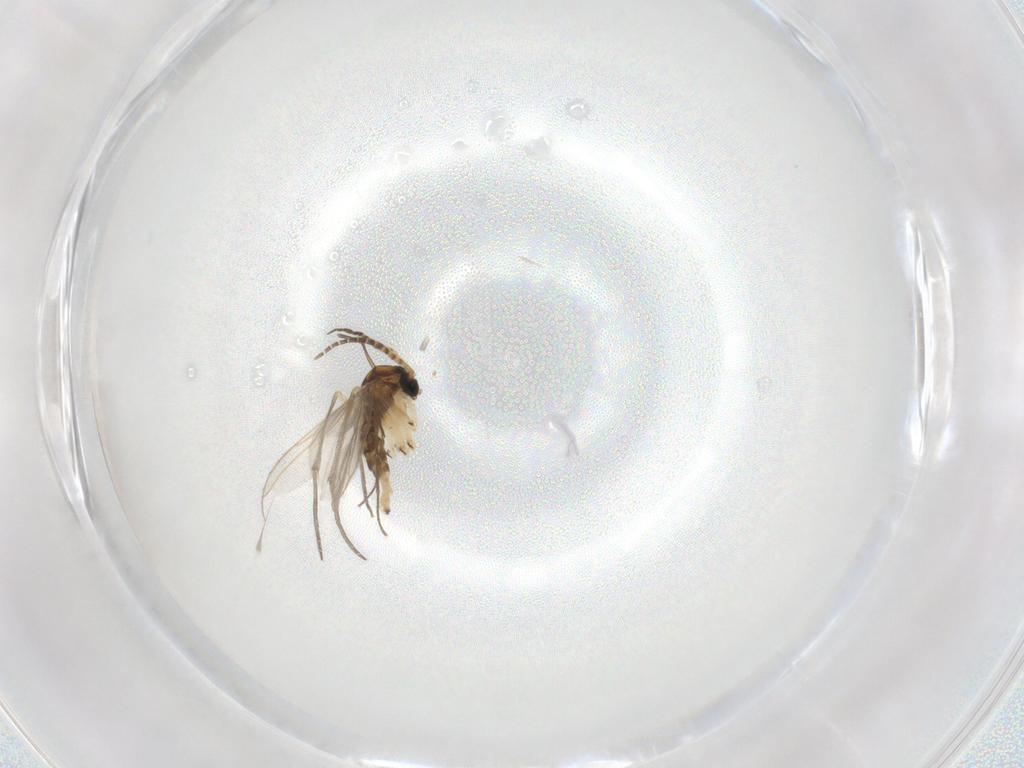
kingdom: Animalia
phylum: Arthropoda
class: Insecta
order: Diptera
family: Sciaridae
